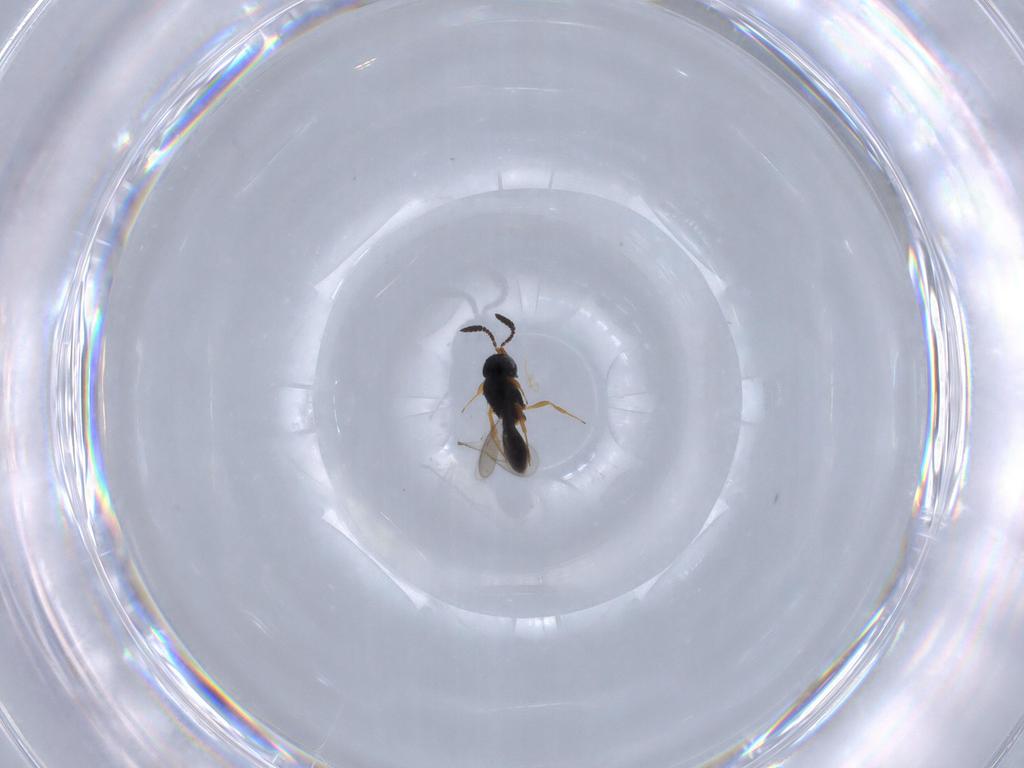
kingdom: Animalia
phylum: Arthropoda
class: Insecta
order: Hymenoptera
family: Scelionidae
